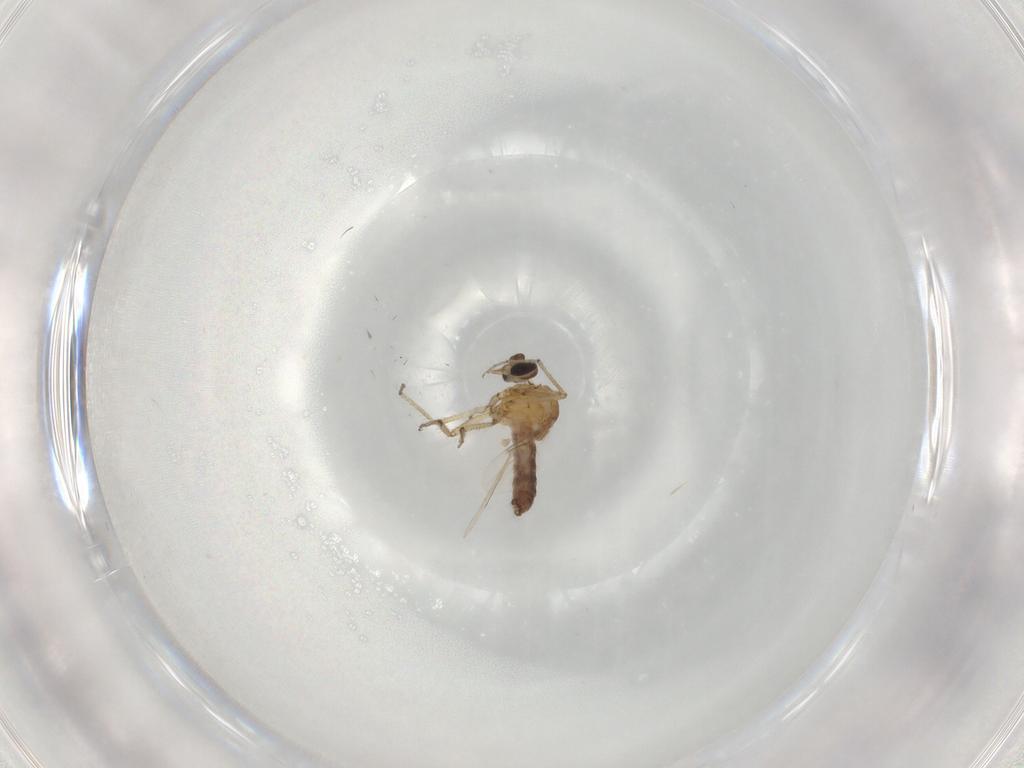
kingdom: Animalia
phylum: Arthropoda
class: Insecta
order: Diptera
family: Ceratopogonidae
